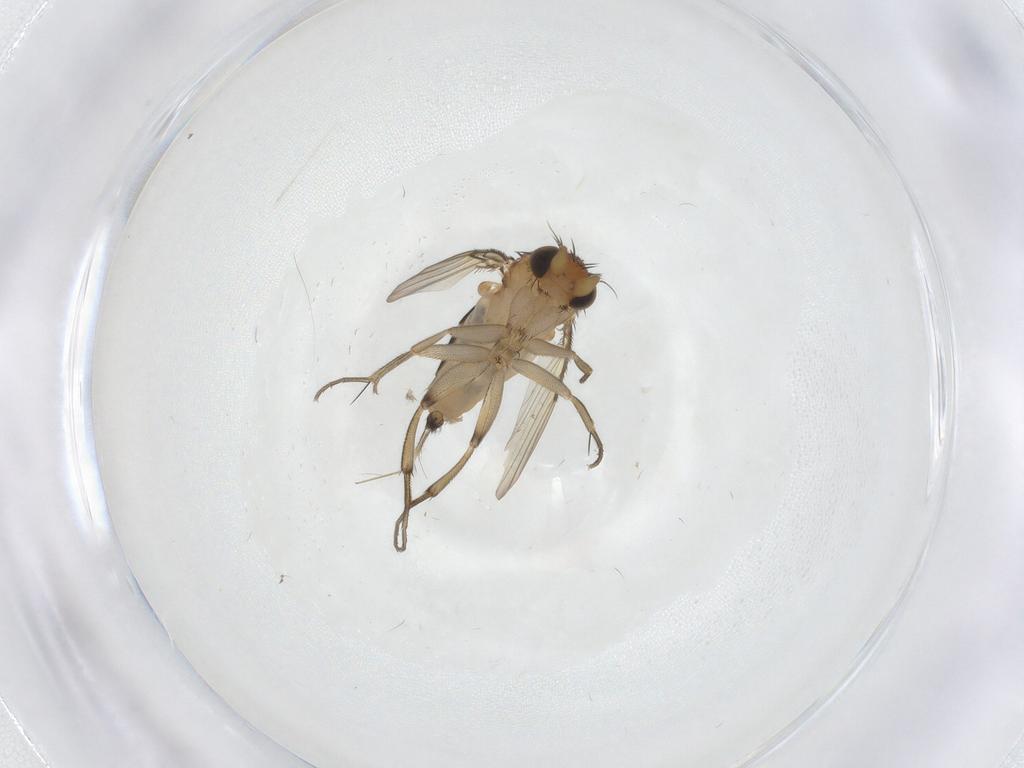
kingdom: Animalia
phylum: Arthropoda
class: Insecta
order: Diptera
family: Phoridae
